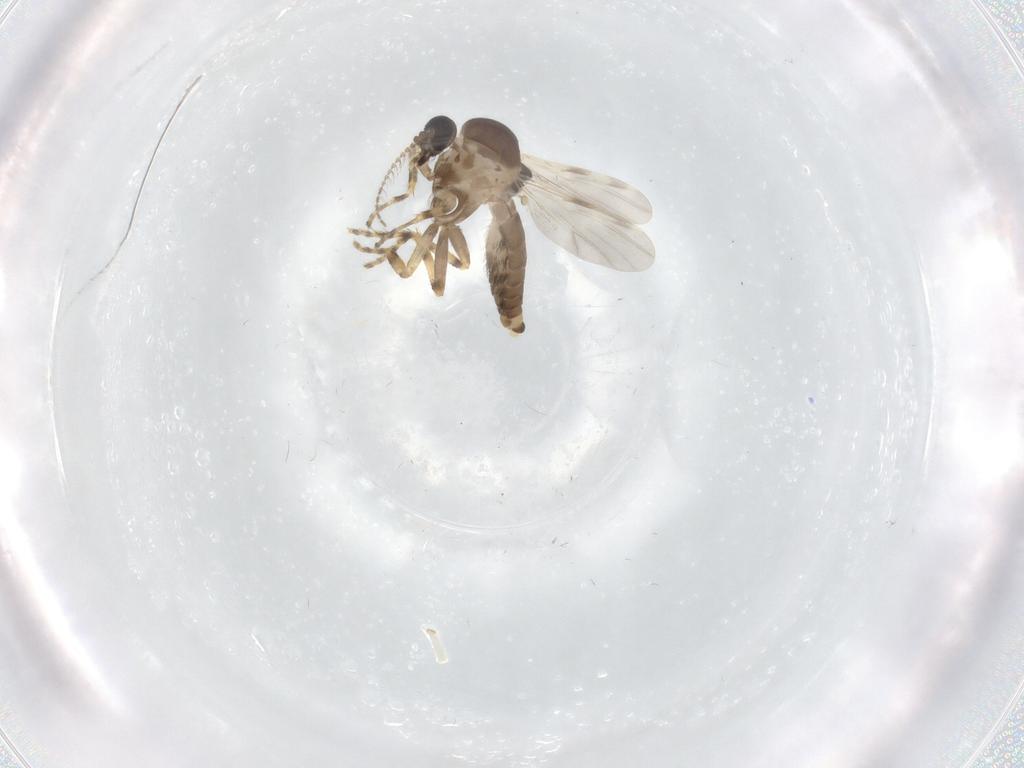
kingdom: Animalia
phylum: Arthropoda
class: Insecta
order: Diptera
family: Ceratopogonidae
